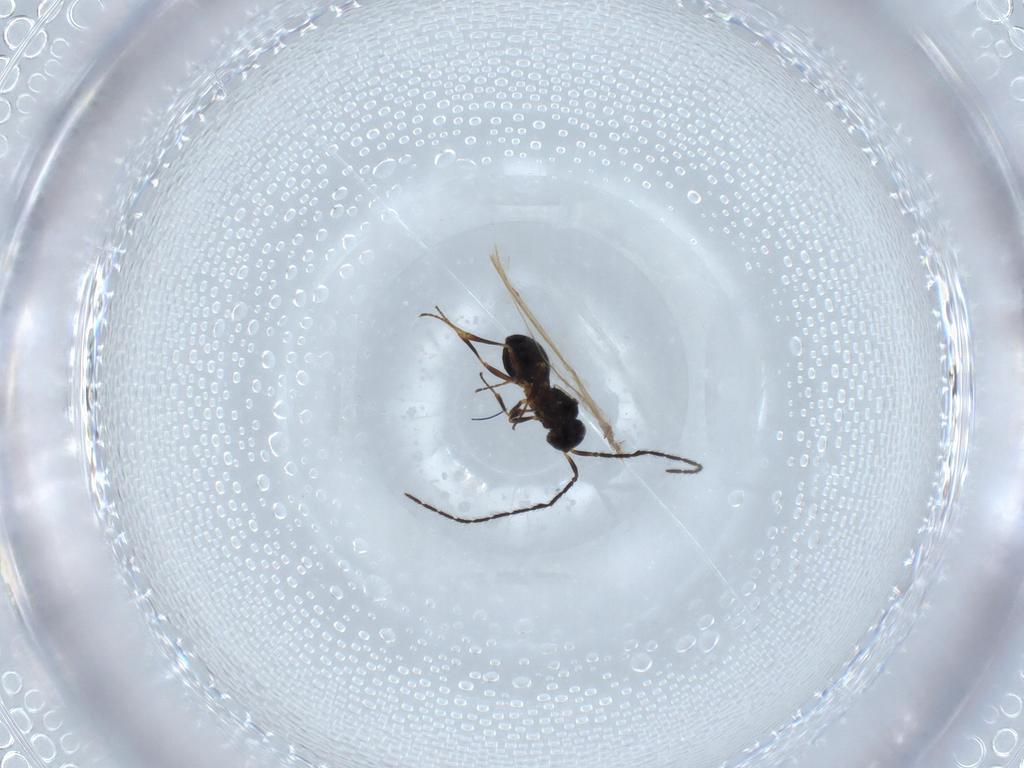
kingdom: Animalia
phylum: Arthropoda
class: Insecta
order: Hymenoptera
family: Scelionidae
